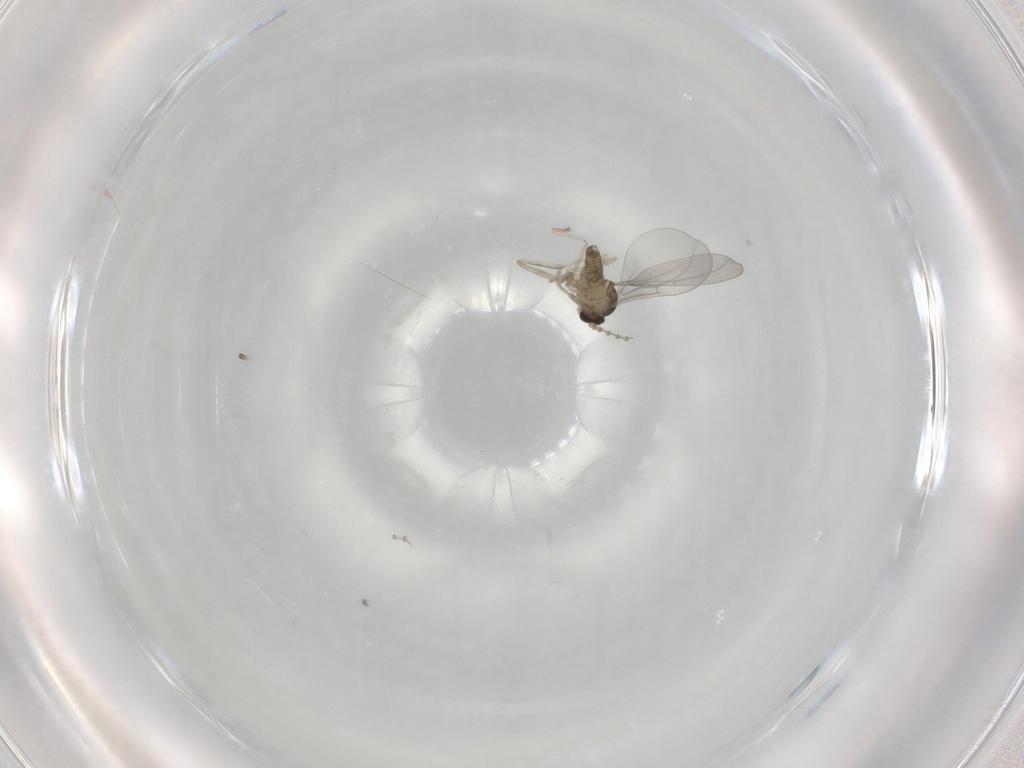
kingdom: Animalia
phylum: Arthropoda
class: Insecta
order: Diptera
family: Cecidomyiidae
